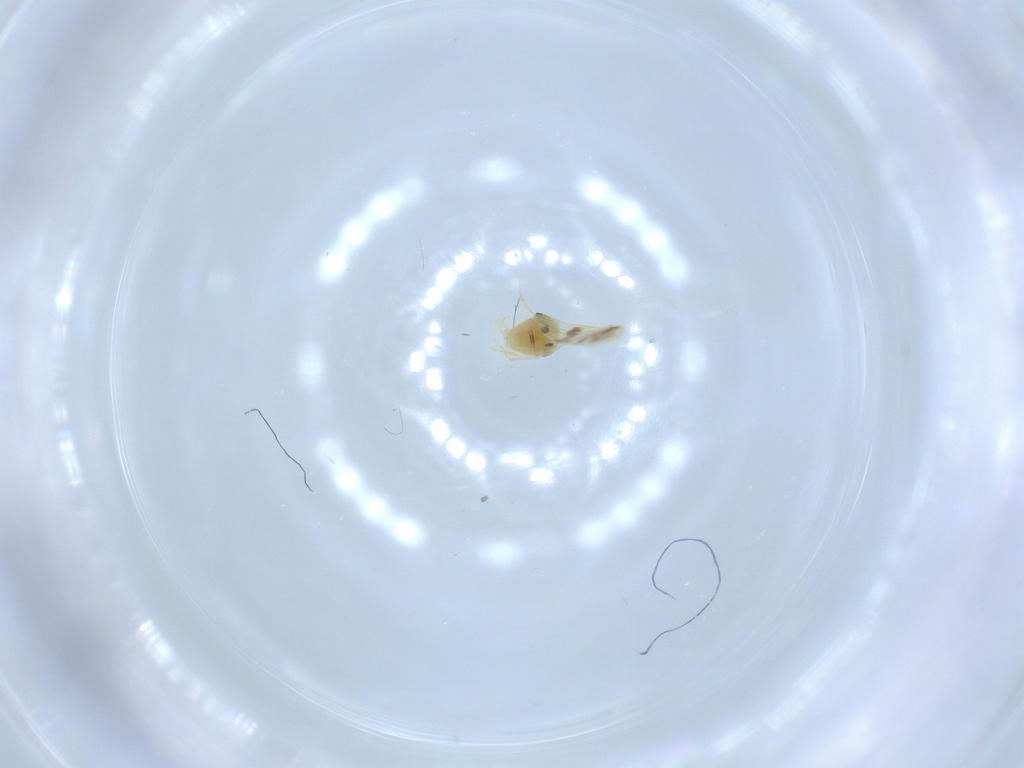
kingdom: Animalia
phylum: Arthropoda
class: Insecta
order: Hemiptera
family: Aleyrodidae
